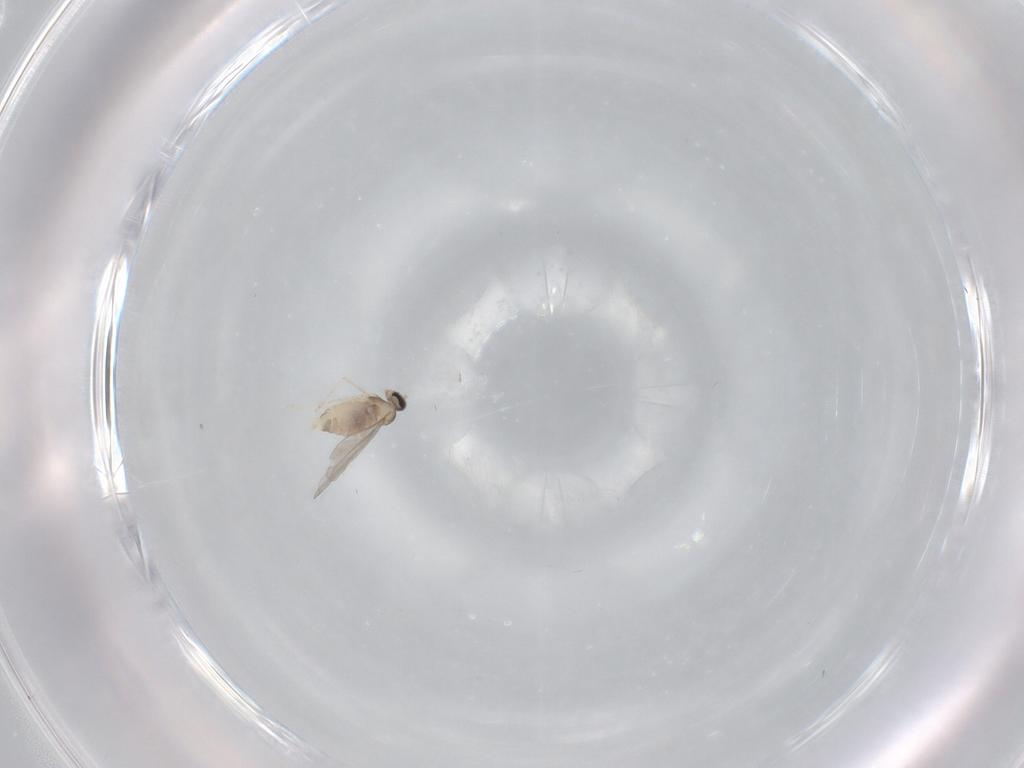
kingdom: Animalia
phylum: Arthropoda
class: Insecta
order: Diptera
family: Cecidomyiidae
